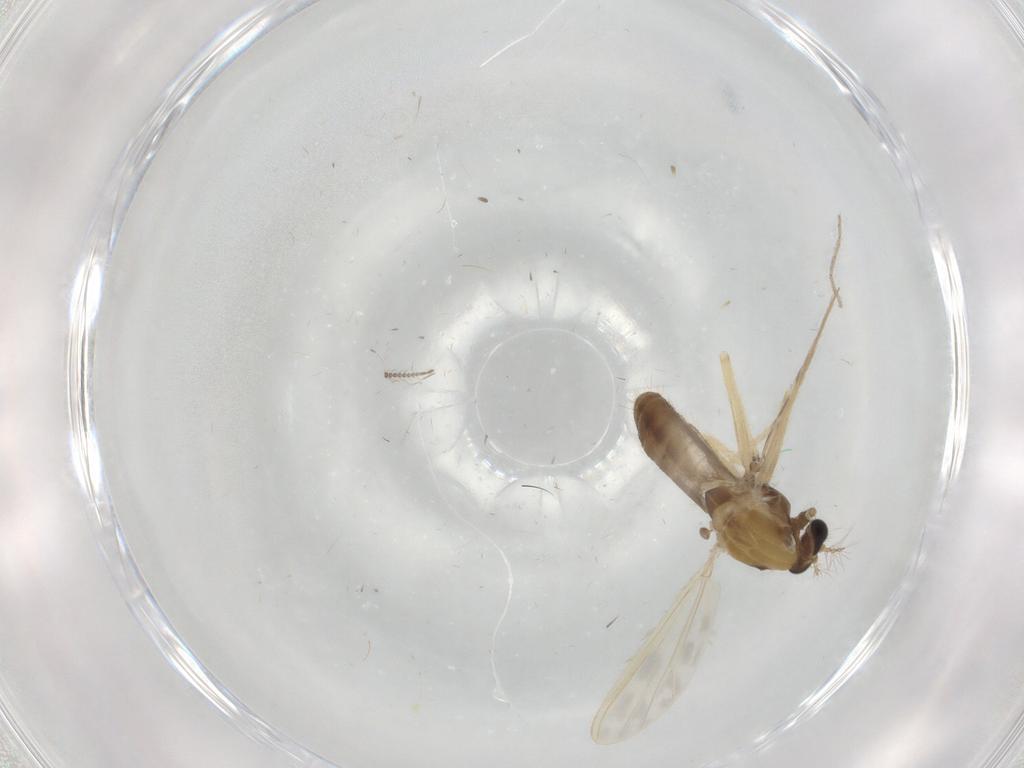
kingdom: Animalia
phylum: Arthropoda
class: Insecta
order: Diptera
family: Chironomidae
